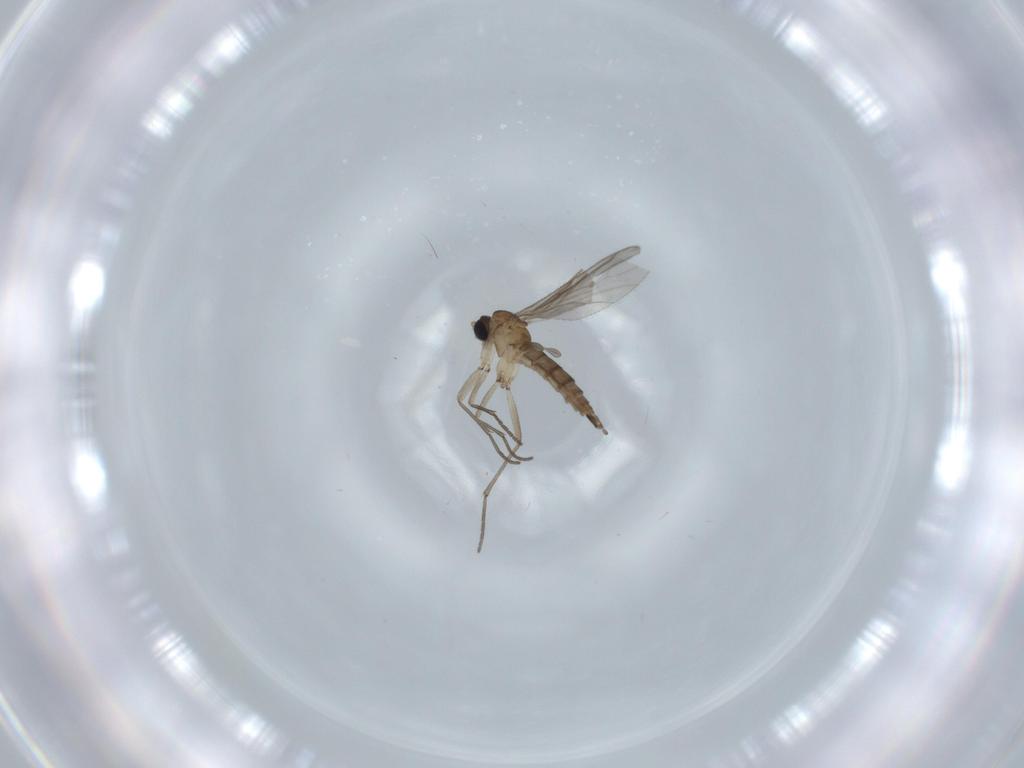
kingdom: Animalia
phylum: Arthropoda
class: Insecta
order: Diptera
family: Sciaridae
